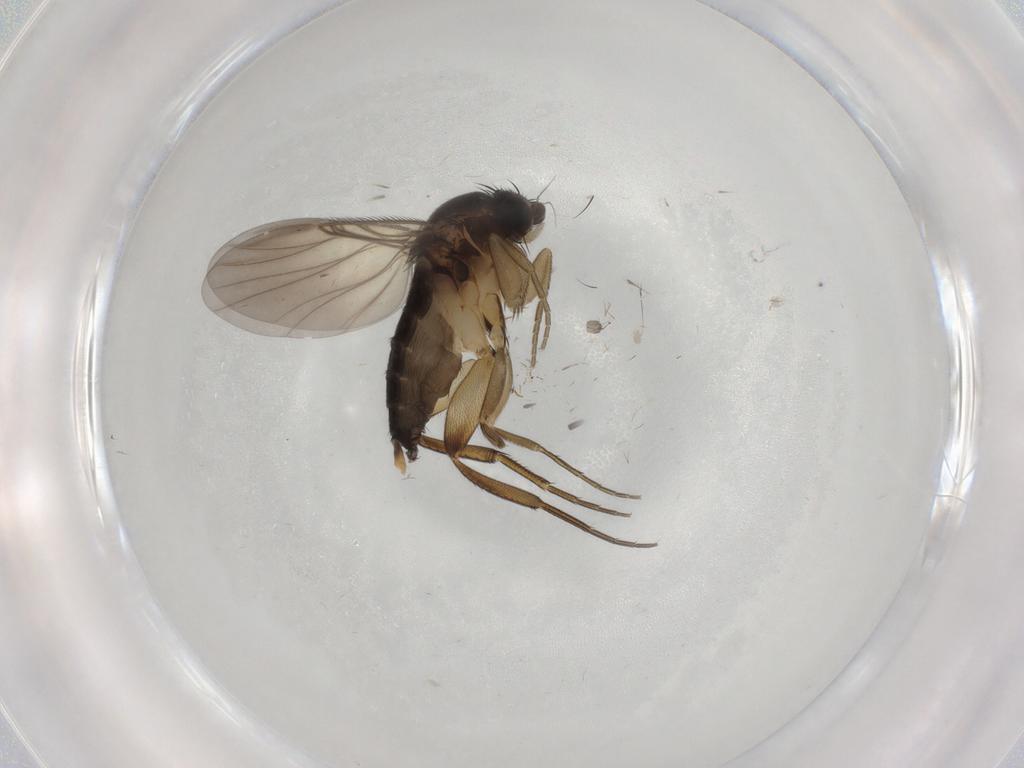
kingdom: Animalia
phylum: Arthropoda
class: Insecta
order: Diptera
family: Phoridae
